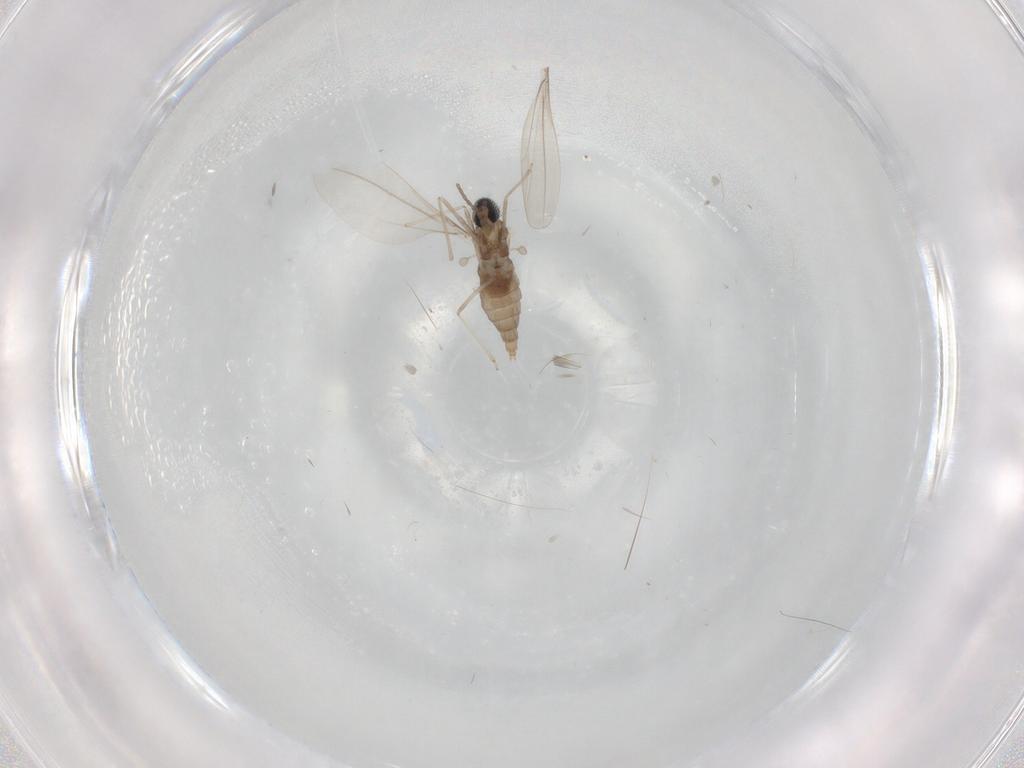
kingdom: Animalia
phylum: Arthropoda
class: Insecta
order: Diptera
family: Cecidomyiidae
